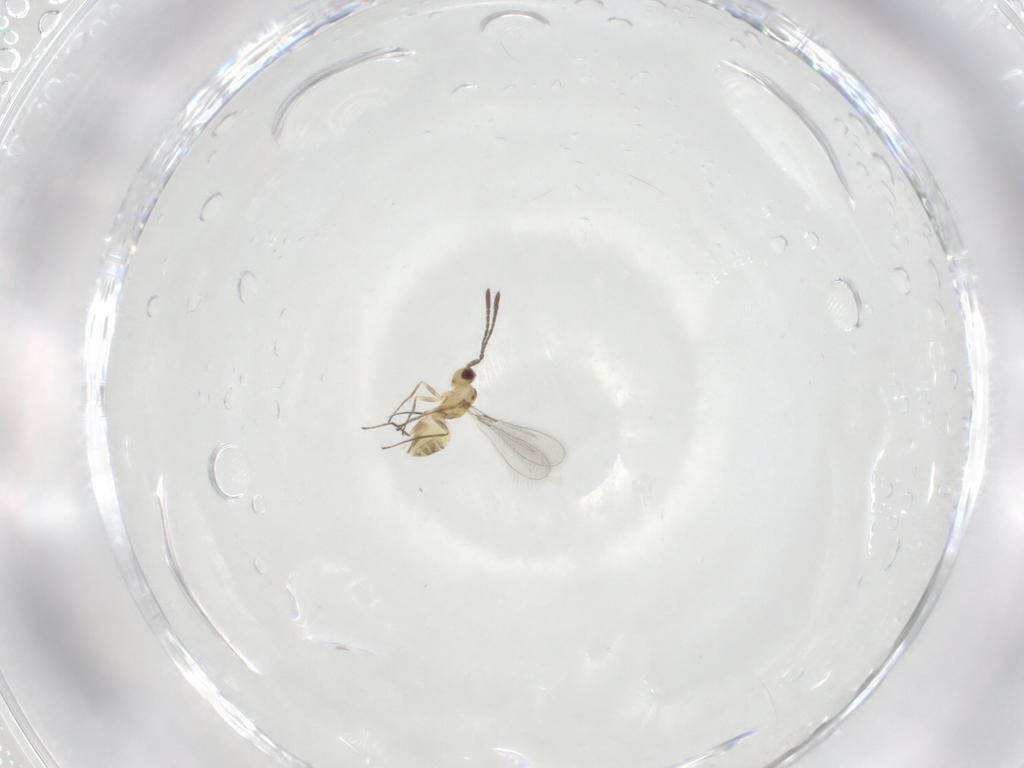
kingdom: Animalia
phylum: Arthropoda
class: Insecta
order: Hymenoptera
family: Mymaridae
